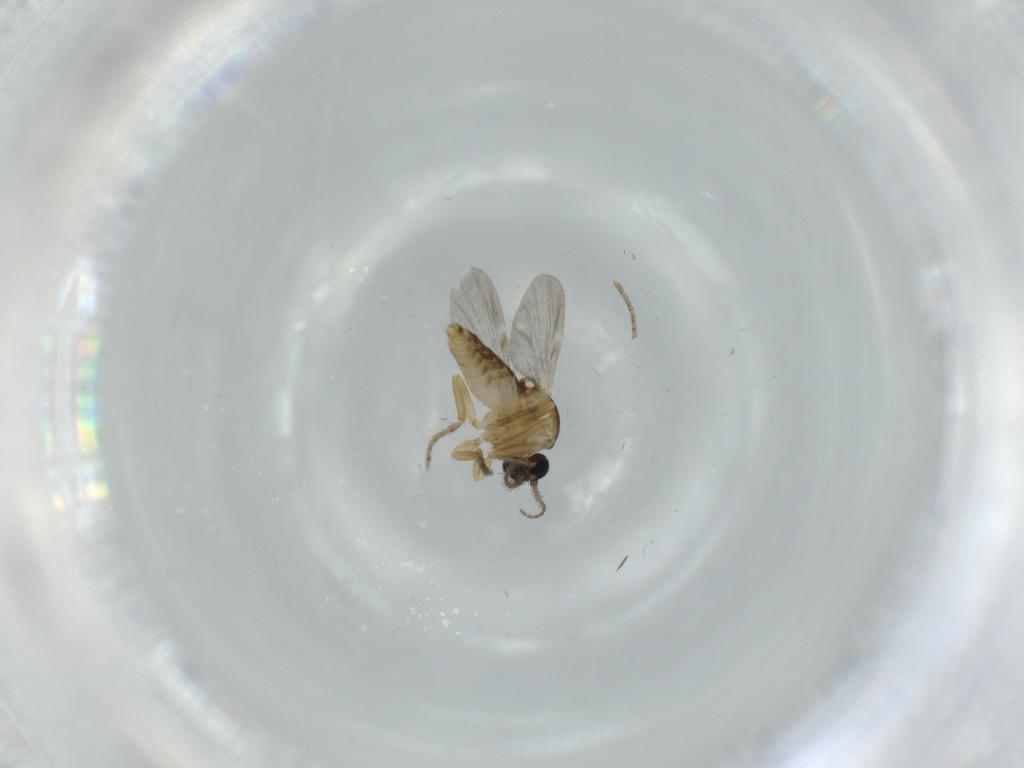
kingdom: Animalia
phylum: Arthropoda
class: Insecta
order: Diptera
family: Ceratopogonidae
